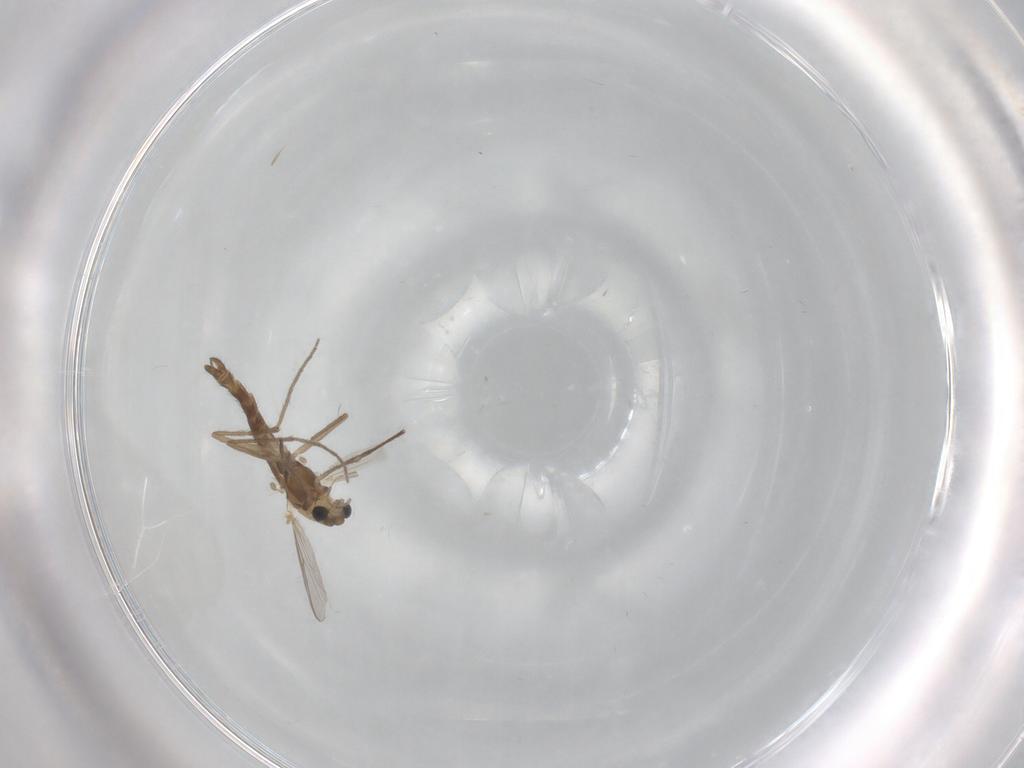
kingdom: Animalia
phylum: Arthropoda
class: Insecta
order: Diptera
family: Chironomidae
